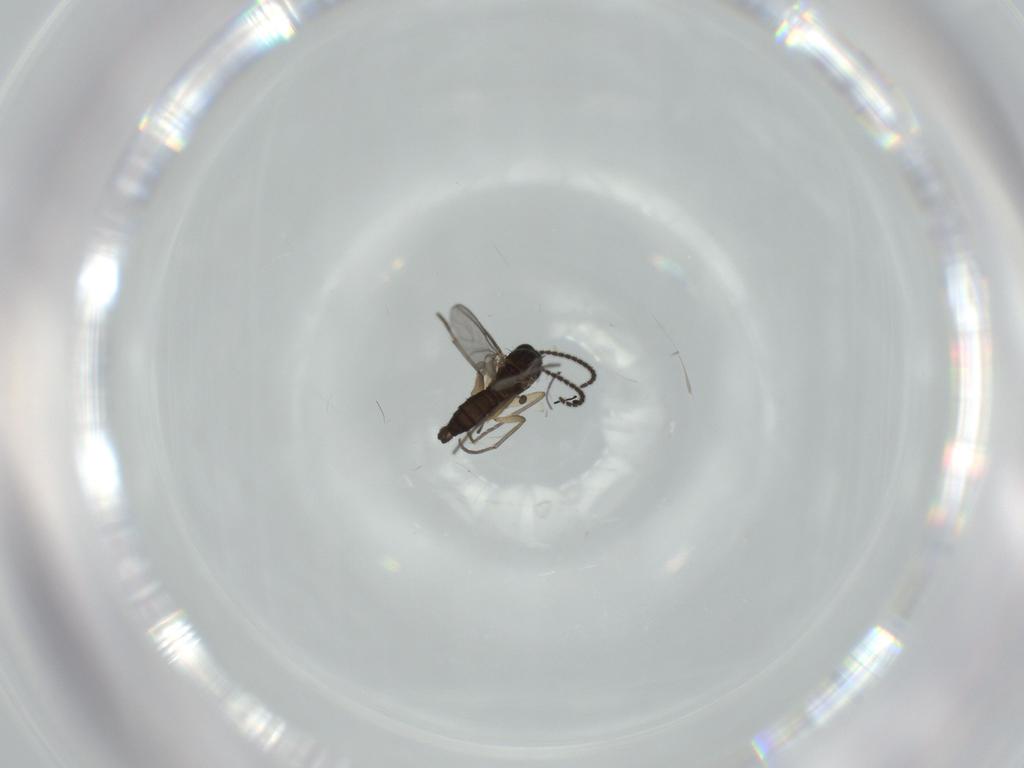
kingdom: Animalia
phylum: Arthropoda
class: Insecta
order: Diptera
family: Sciaridae
